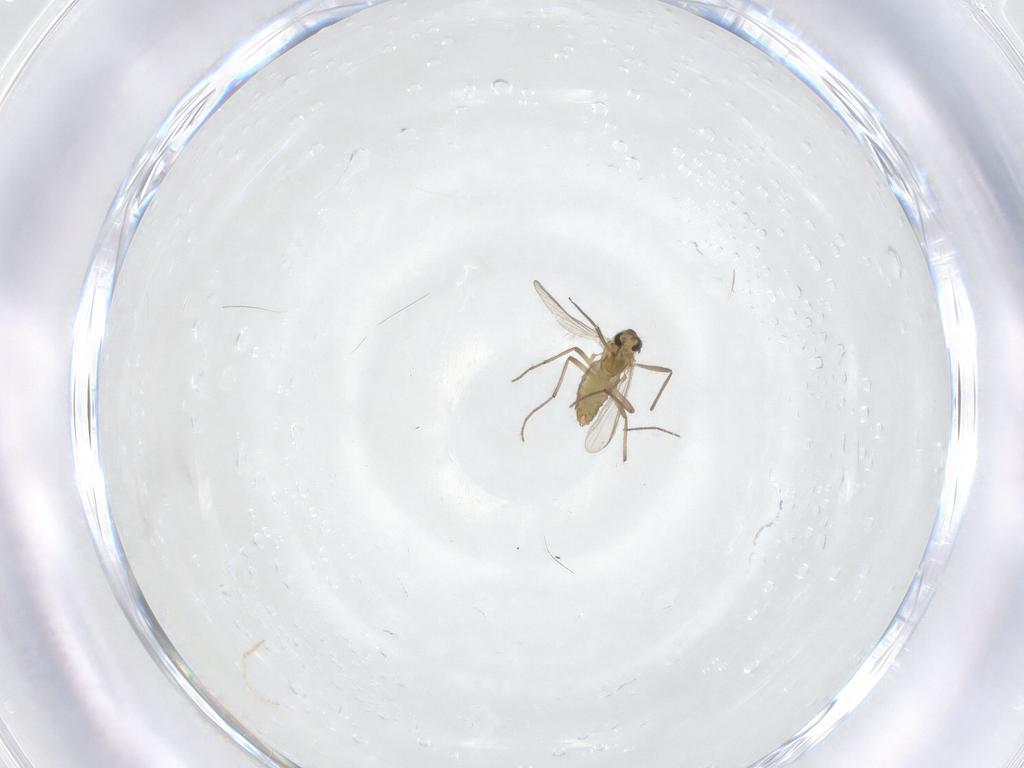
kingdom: Animalia
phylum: Arthropoda
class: Insecta
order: Diptera
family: Chironomidae
